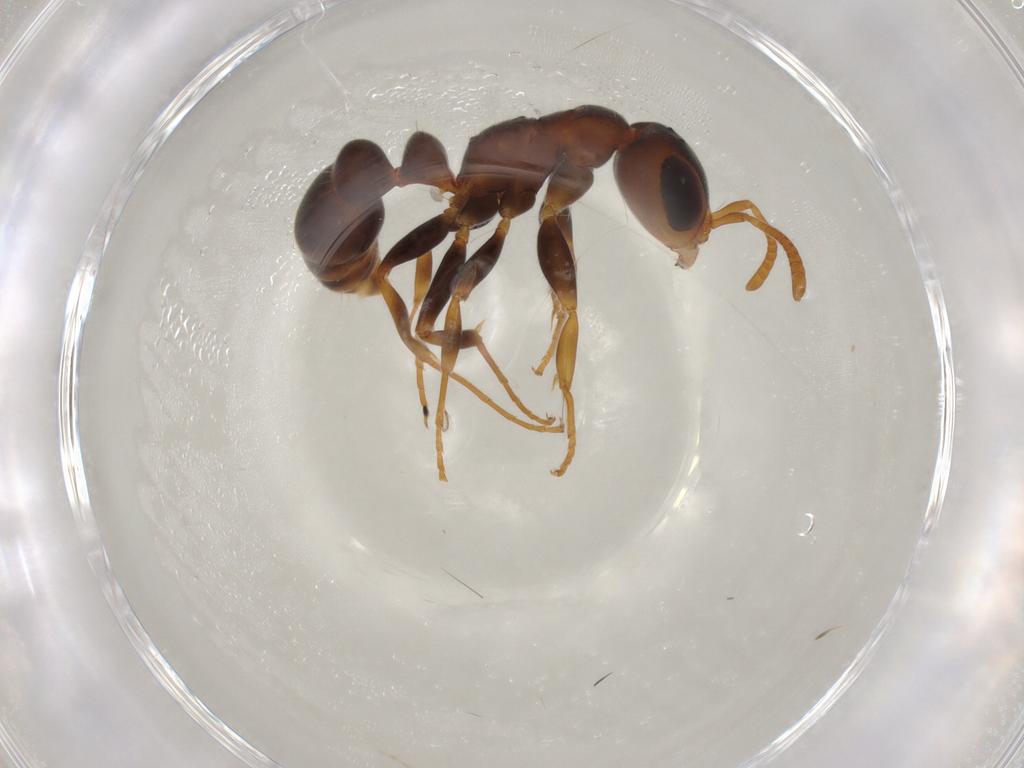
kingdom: Animalia
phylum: Arthropoda
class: Insecta
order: Hymenoptera
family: Formicidae
